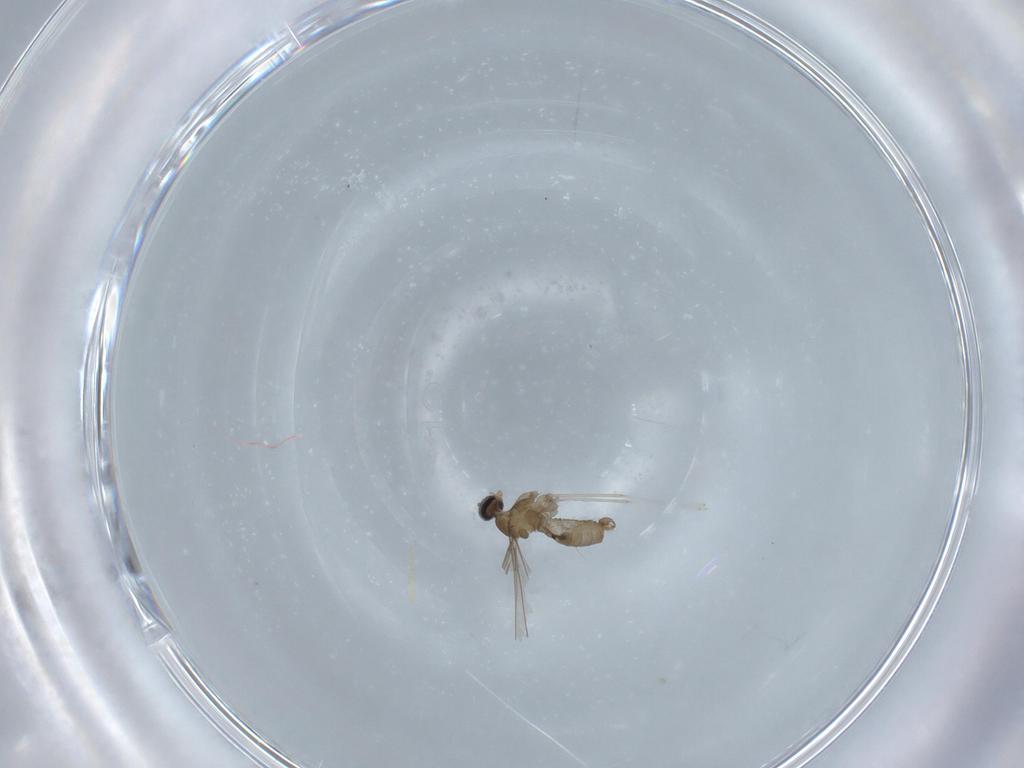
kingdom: Animalia
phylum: Arthropoda
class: Insecta
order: Diptera
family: Cecidomyiidae
